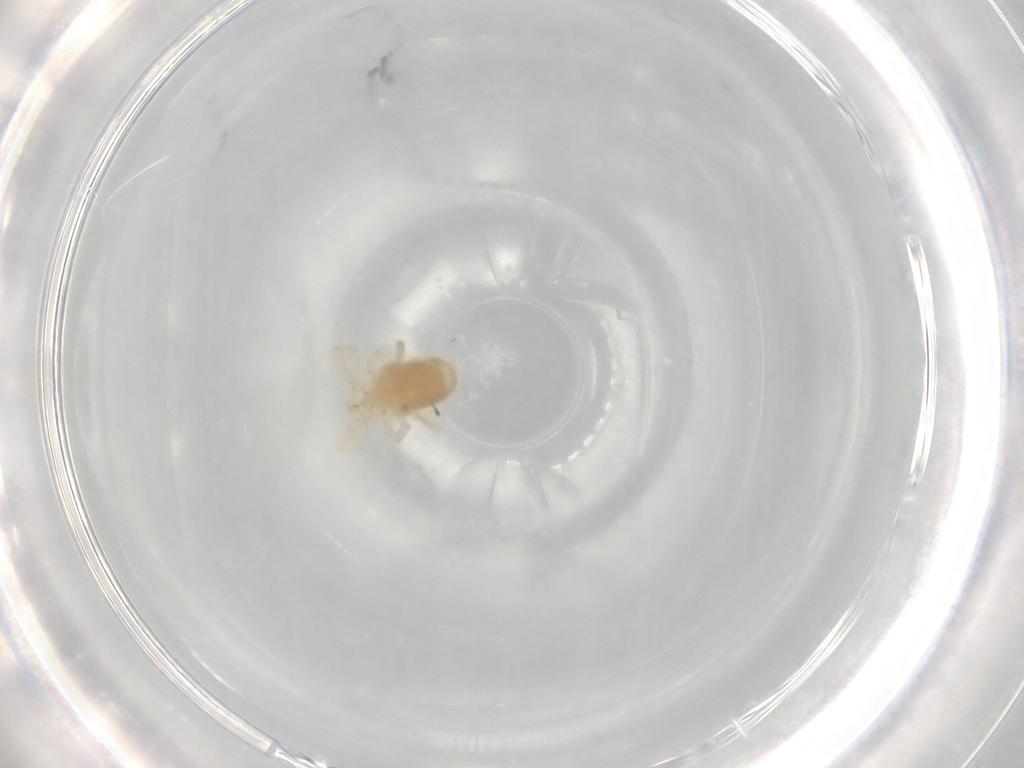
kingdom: Animalia
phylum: Arthropoda
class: Arachnida
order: Trombidiformes
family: Erythraeidae
